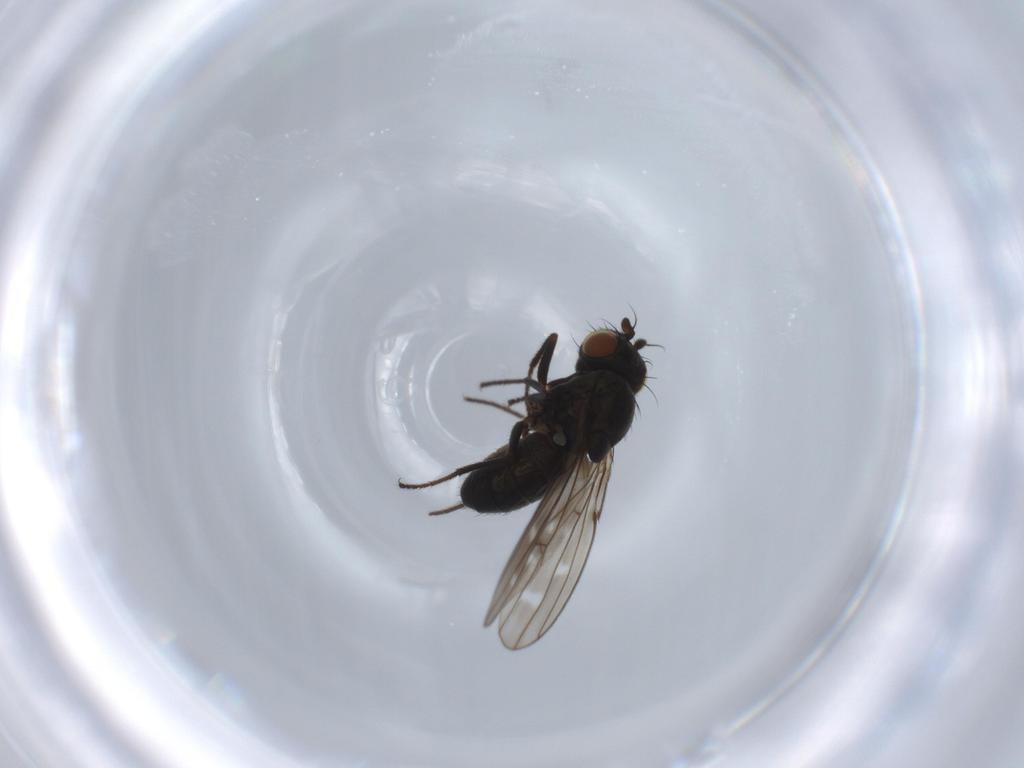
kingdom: Animalia
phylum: Arthropoda
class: Insecta
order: Diptera
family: Ephydridae
